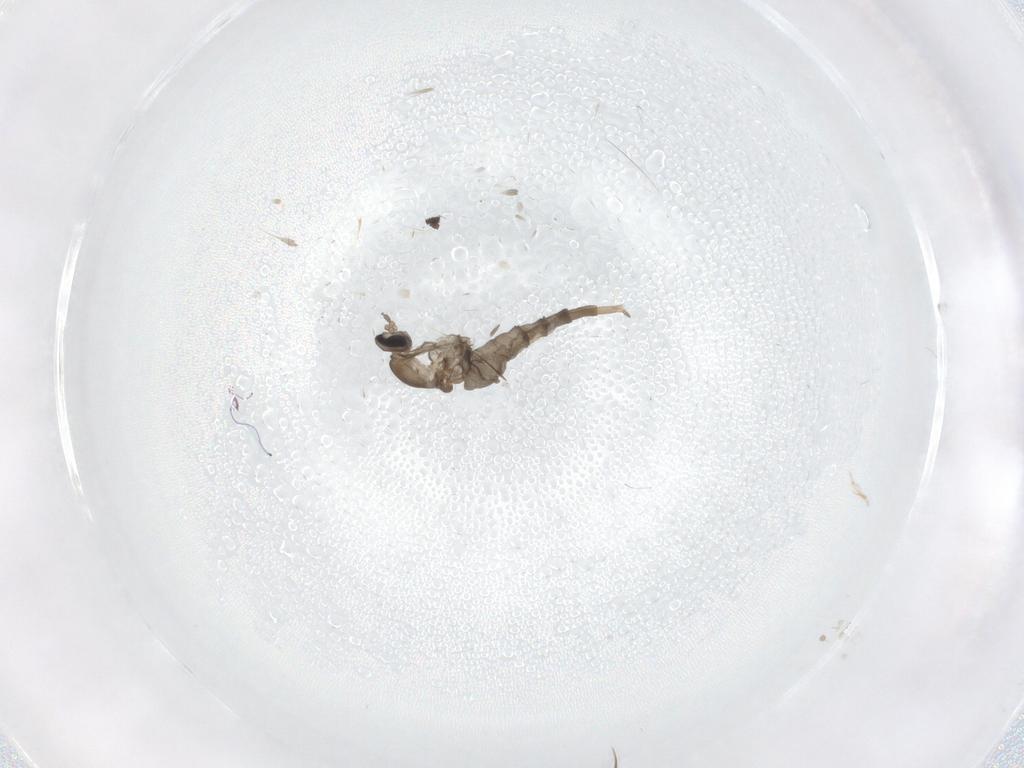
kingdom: Animalia
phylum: Arthropoda
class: Insecta
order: Diptera
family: Cecidomyiidae
